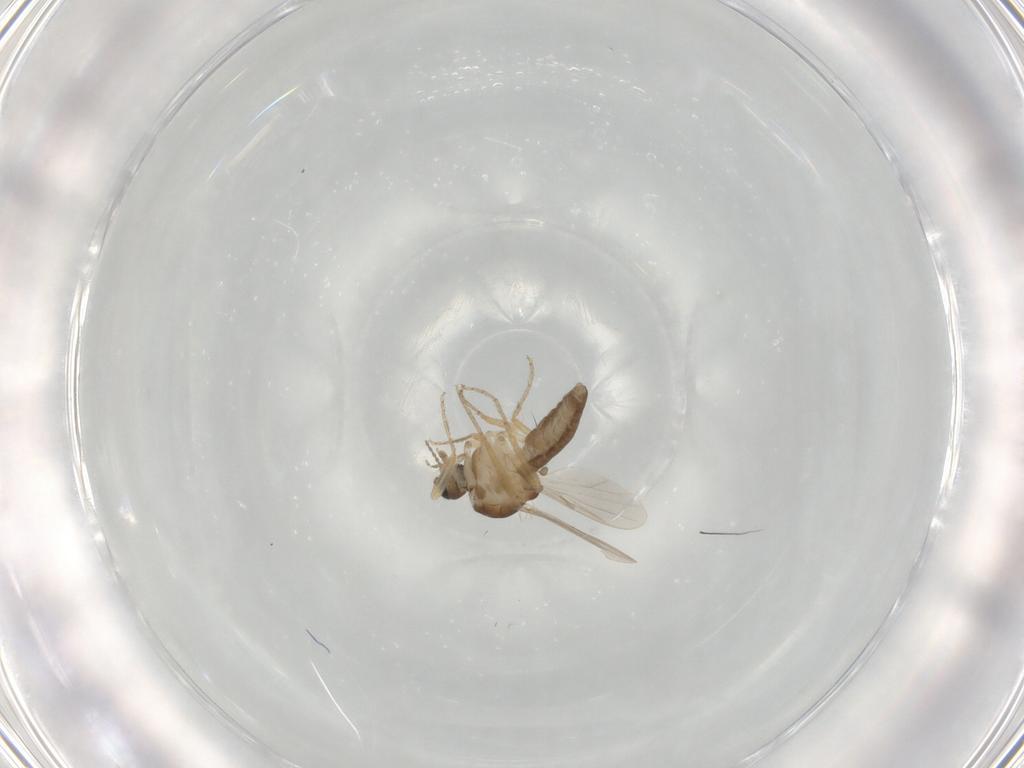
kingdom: Animalia
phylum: Arthropoda
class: Insecta
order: Diptera
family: Ceratopogonidae
